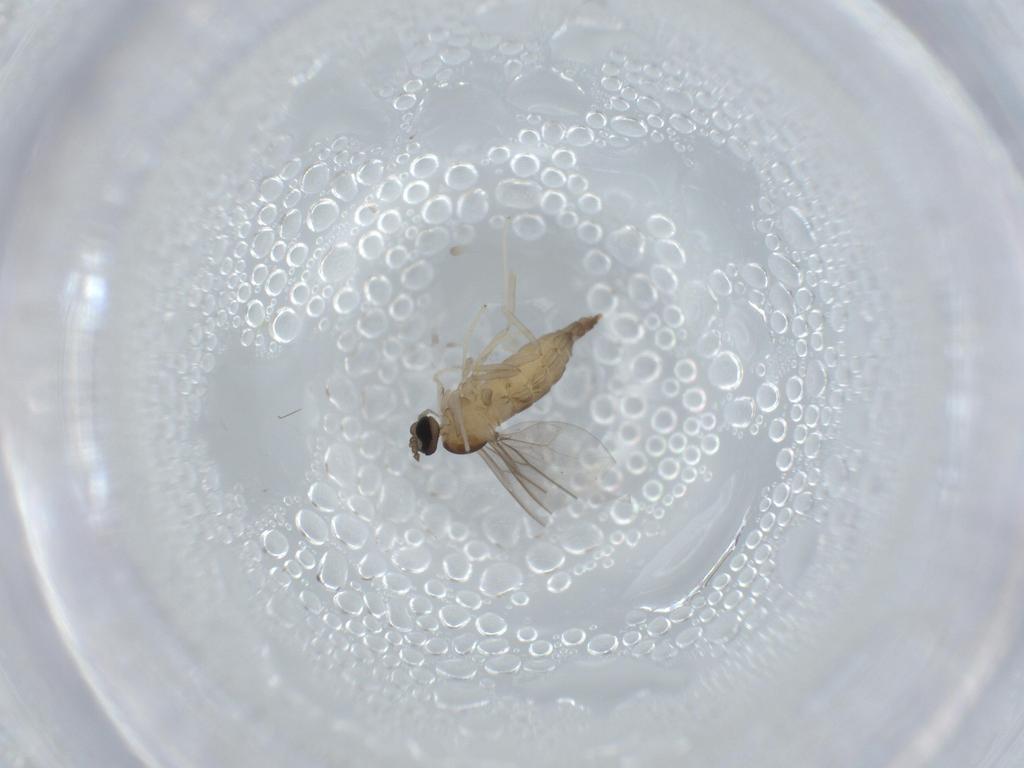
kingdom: Animalia
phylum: Arthropoda
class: Insecta
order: Diptera
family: Cecidomyiidae
